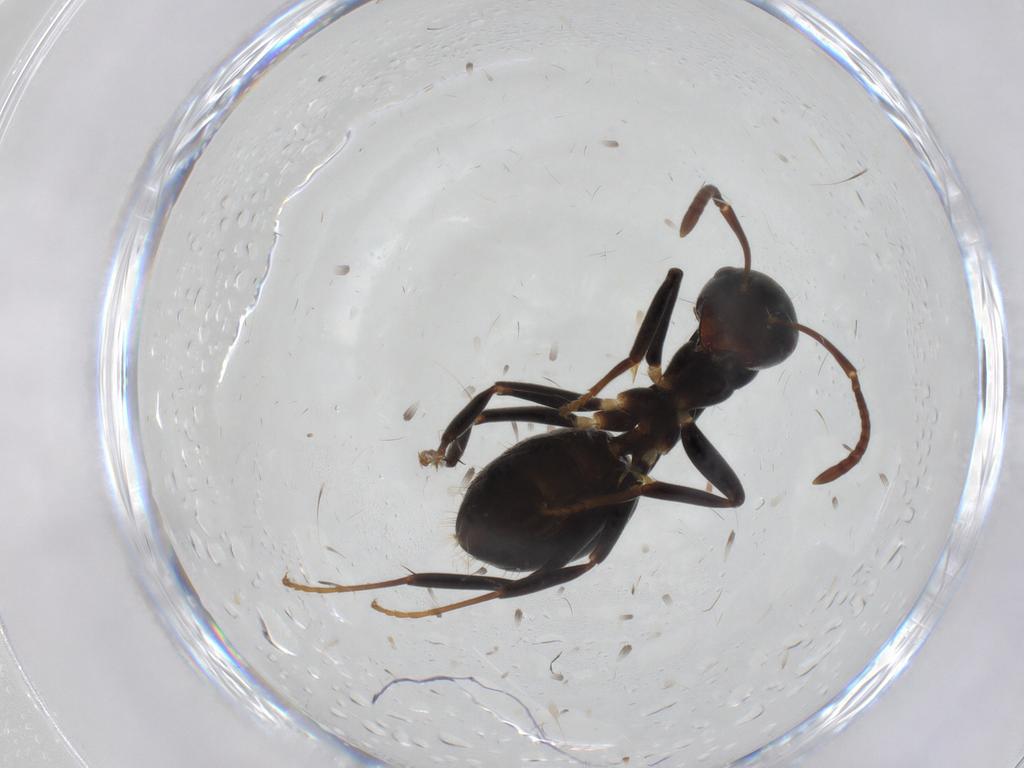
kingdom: Animalia
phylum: Arthropoda
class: Insecta
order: Hymenoptera
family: Formicidae
